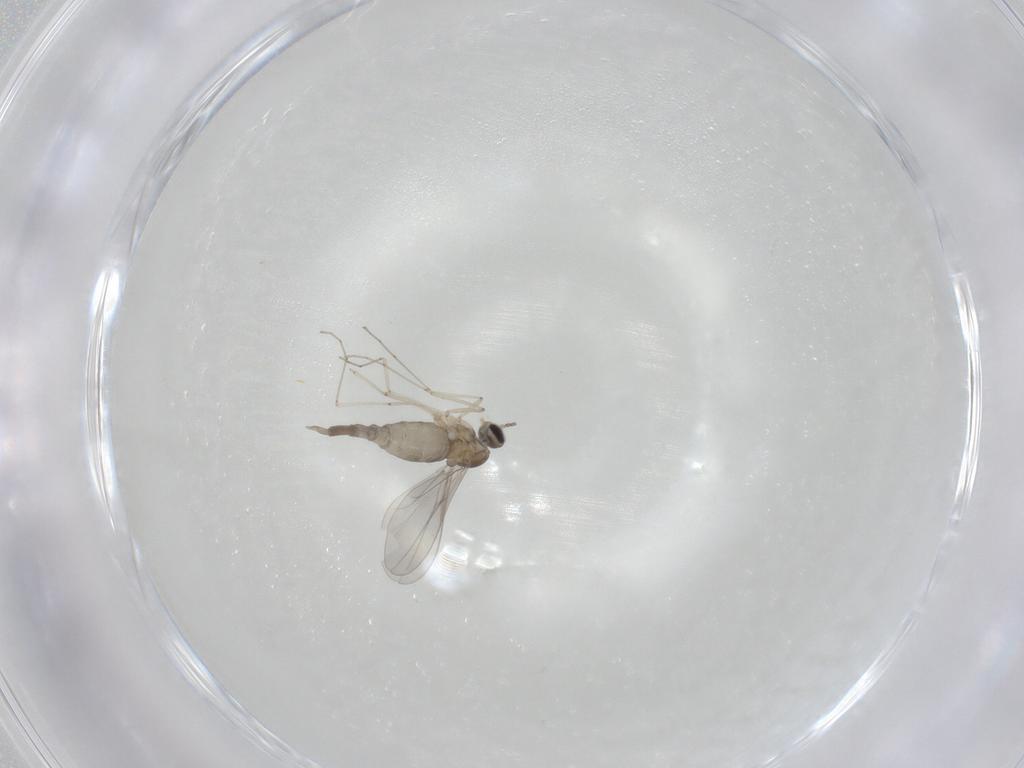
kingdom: Animalia
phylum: Arthropoda
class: Insecta
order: Diptera
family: Cecidomyiidae
